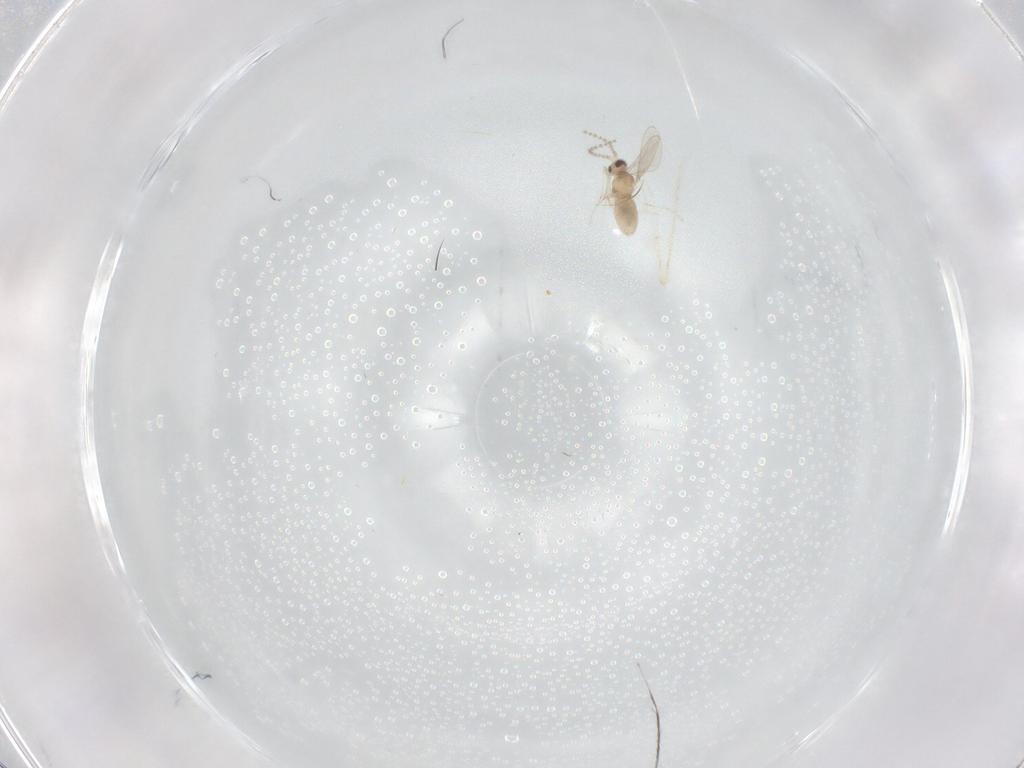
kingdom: Animalia
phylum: Arthropoda
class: Insecta
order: Diptera
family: Cecidomyiidae
